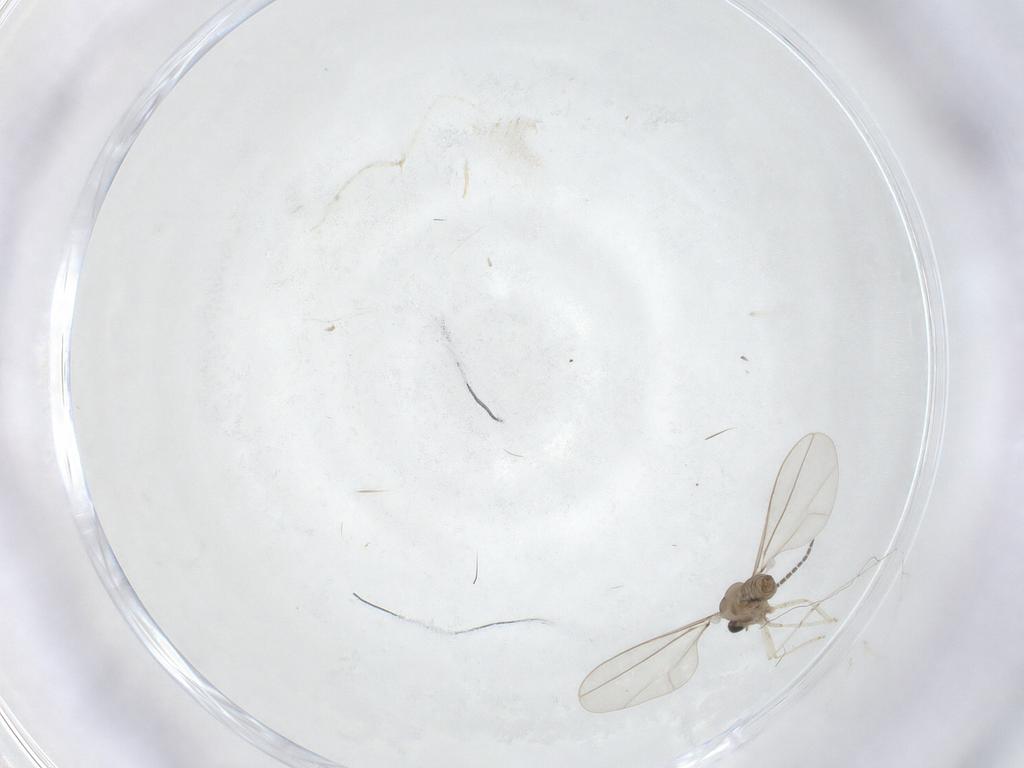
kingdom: Animalia
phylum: Arthropoda
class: Insecta
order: Diptera
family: Cecidomyiidae
